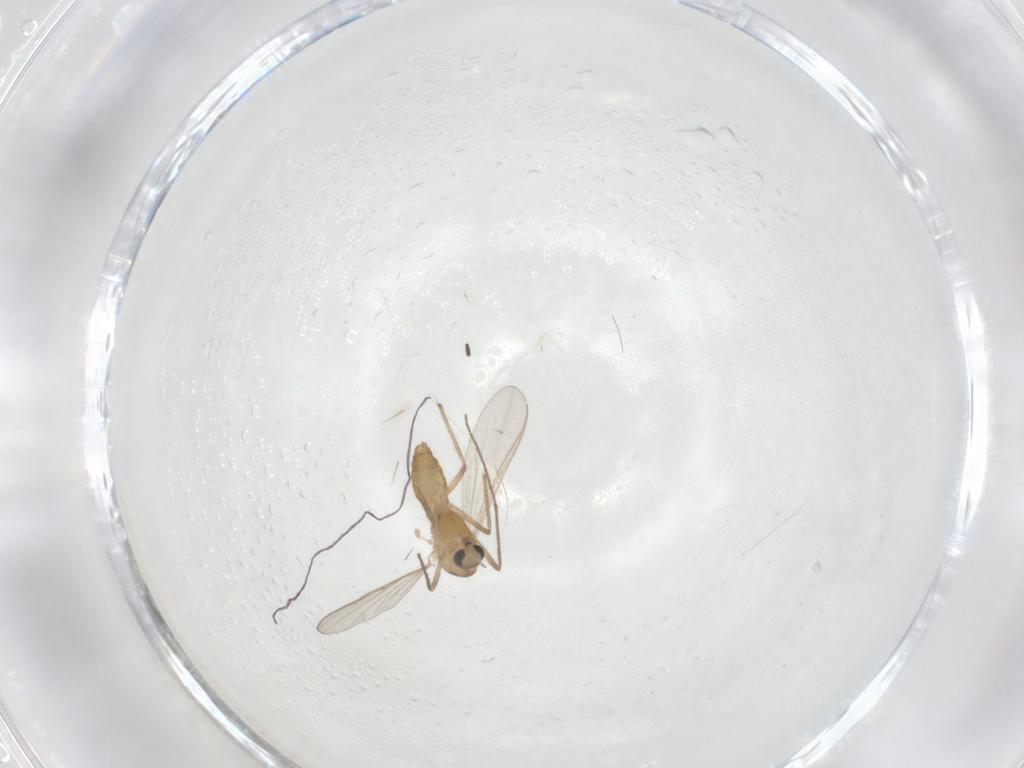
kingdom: Animalia
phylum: Arthropoda
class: Insecta
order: Diptera
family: Chironomidae
